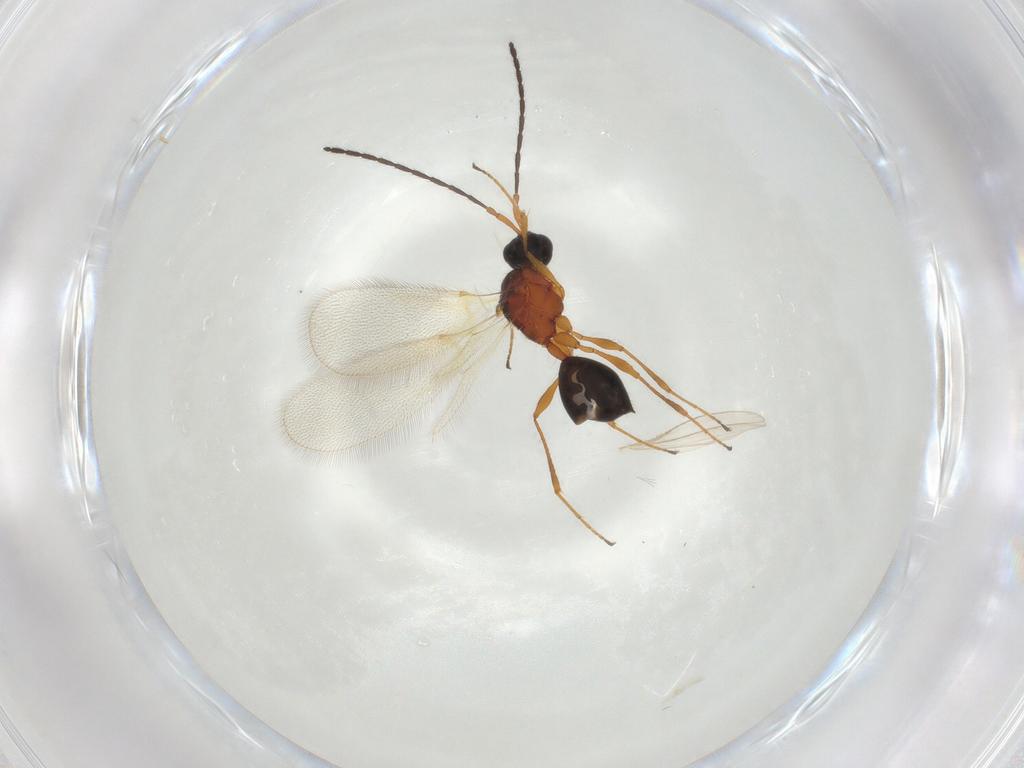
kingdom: Animalia
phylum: Arthropoda
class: Insecta
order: Hymenoptera
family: Diapriidae
